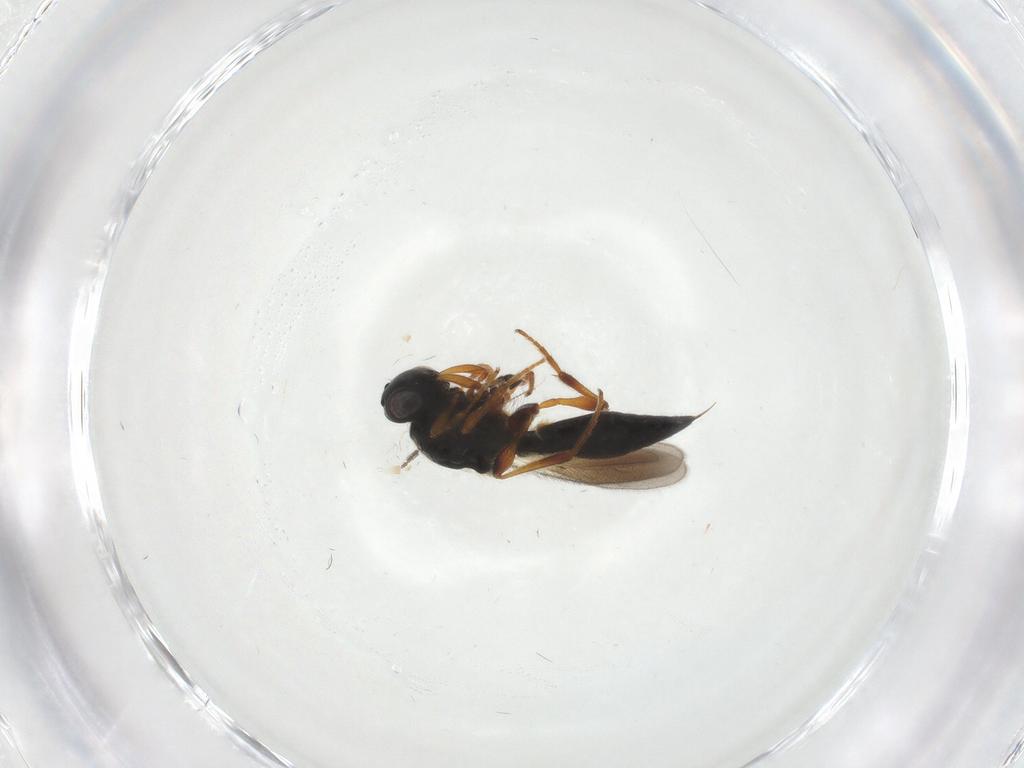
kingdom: Animalia
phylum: Arthropoda
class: Insecta
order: Hymenoptera
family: Platygastridae
